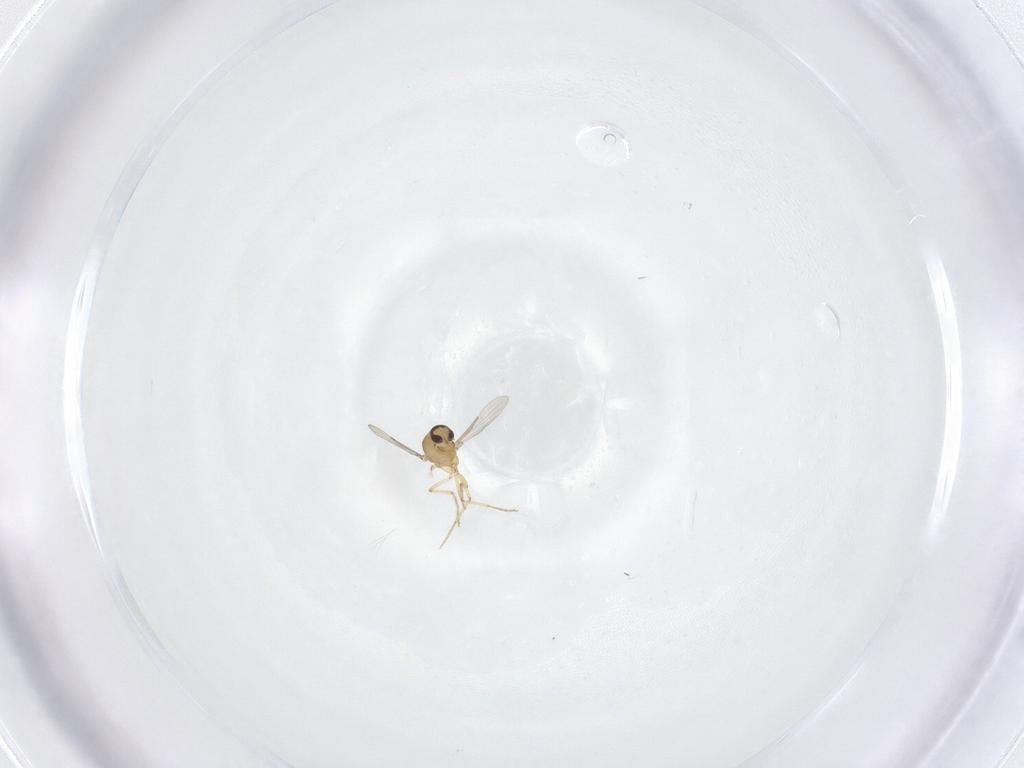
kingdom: Animalia
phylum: Arthropoda
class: Insecta
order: Diptera
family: Ceratopogonidae
